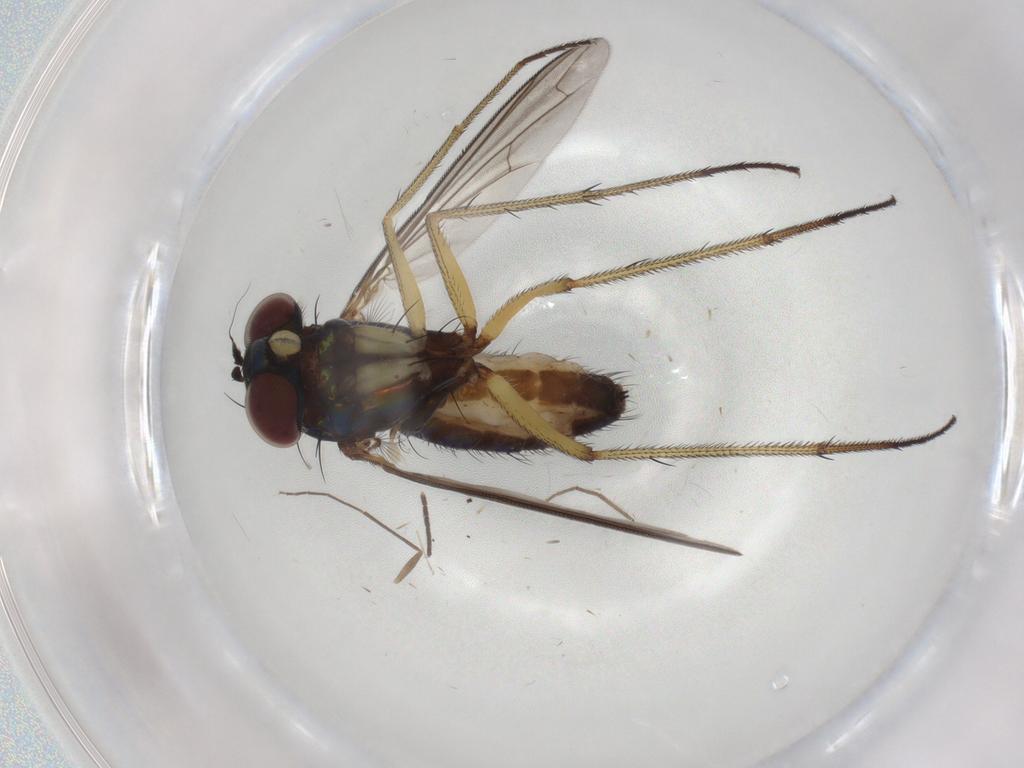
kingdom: Animalia
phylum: Arthropoda
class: Insecta
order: Diptera
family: Dolichopodidae
